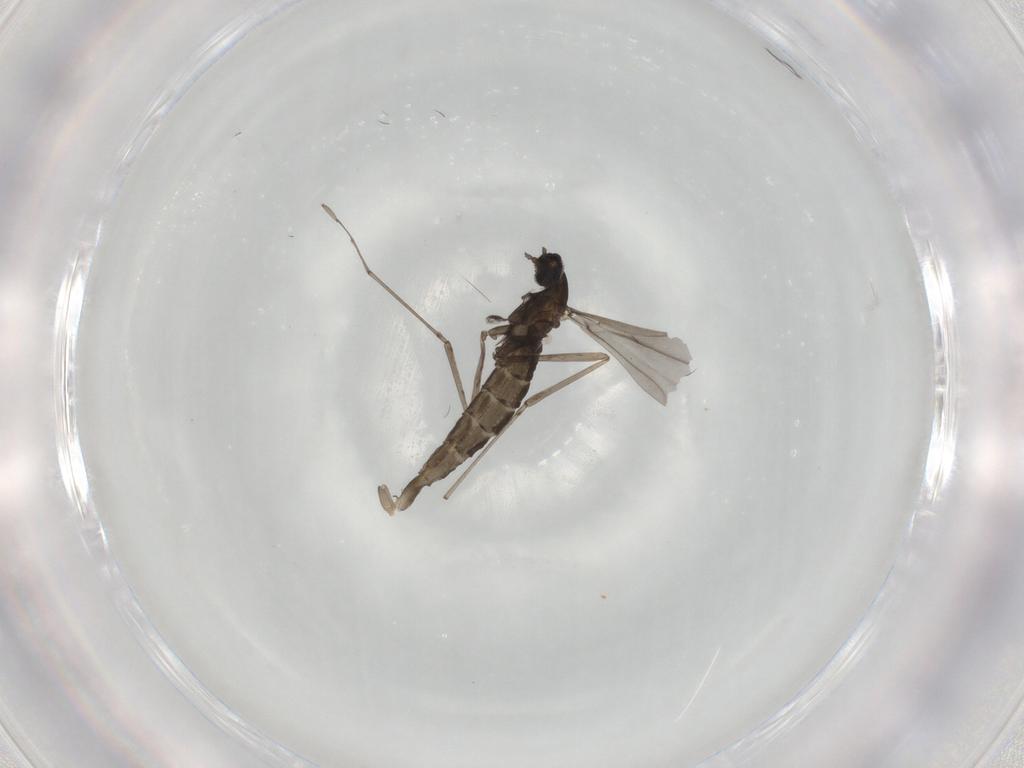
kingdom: Animalia
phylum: Arthropoda
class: Insecta
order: Diptera
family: Cecidomyiidae
